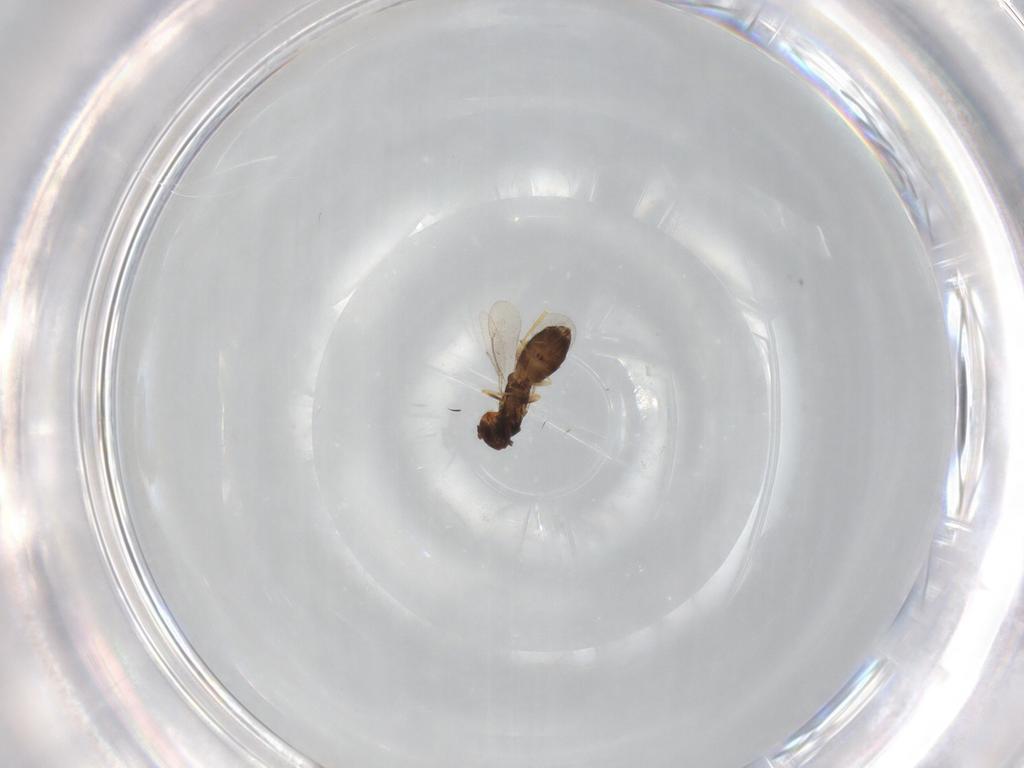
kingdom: Animalia
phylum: Arthropoda
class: Insecta
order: Hymenoptera
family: Eulophidae
